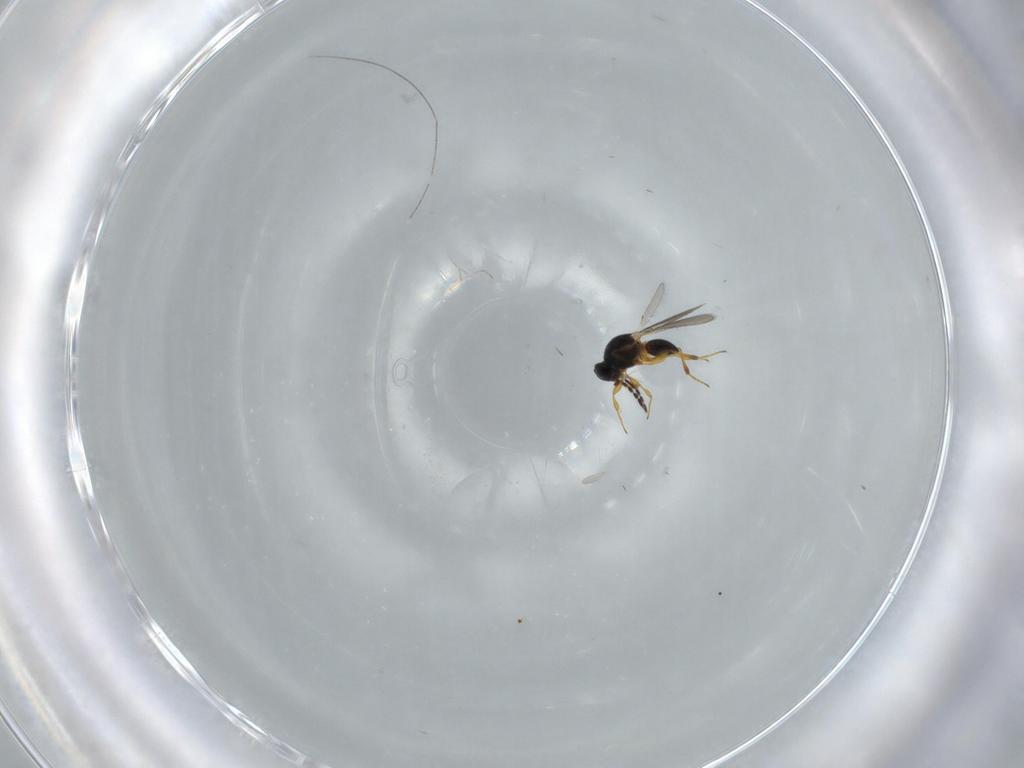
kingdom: Animalia
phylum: Arthropoda
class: Insecta
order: Hymenoptera
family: Platygastridae
